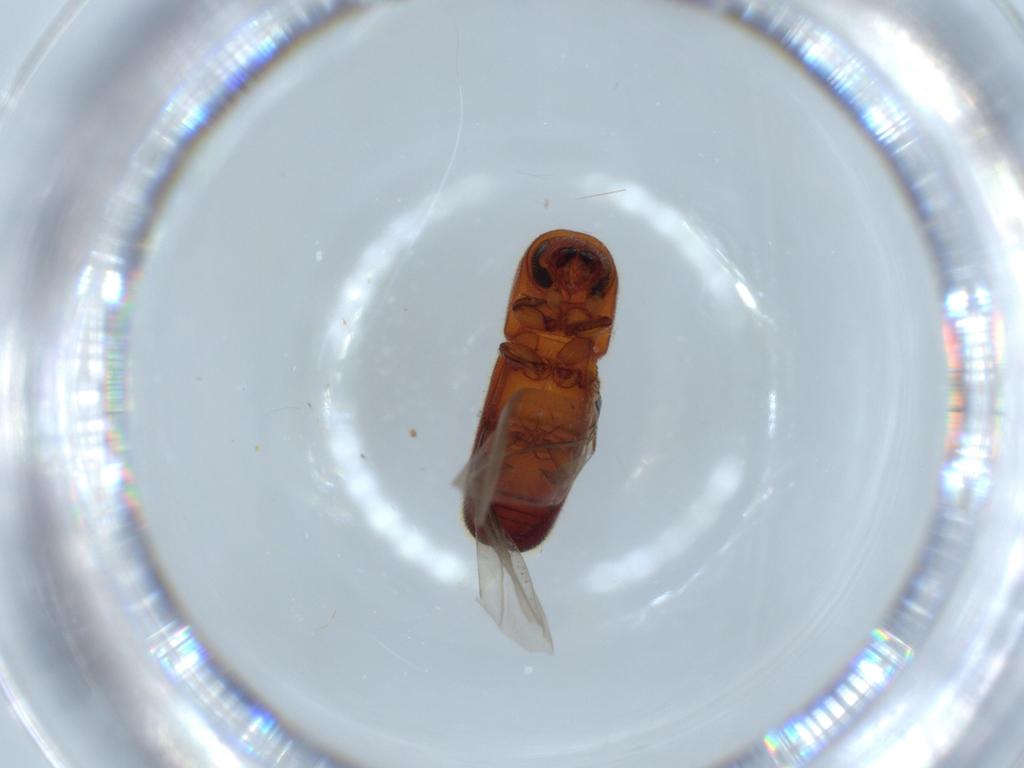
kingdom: Animalia
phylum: Arthropoda
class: Insecta
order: Coleoptera
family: Curculionidae
